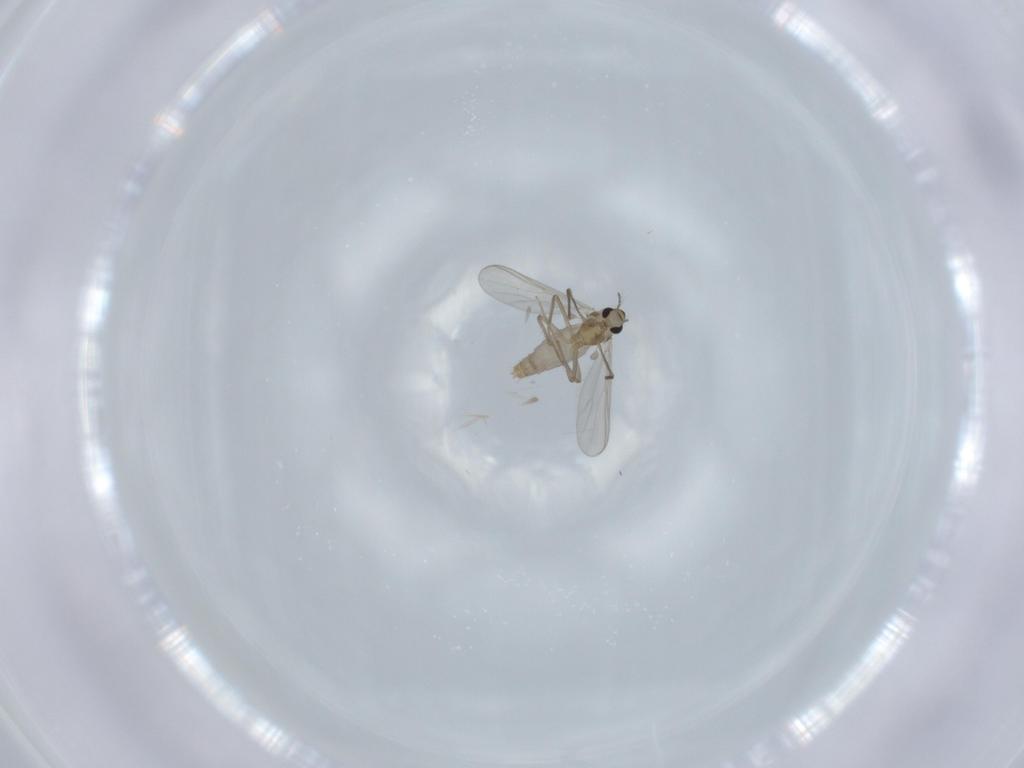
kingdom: Animalia
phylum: Arthropoda
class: Insecta
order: Diptera
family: Chironomidae
